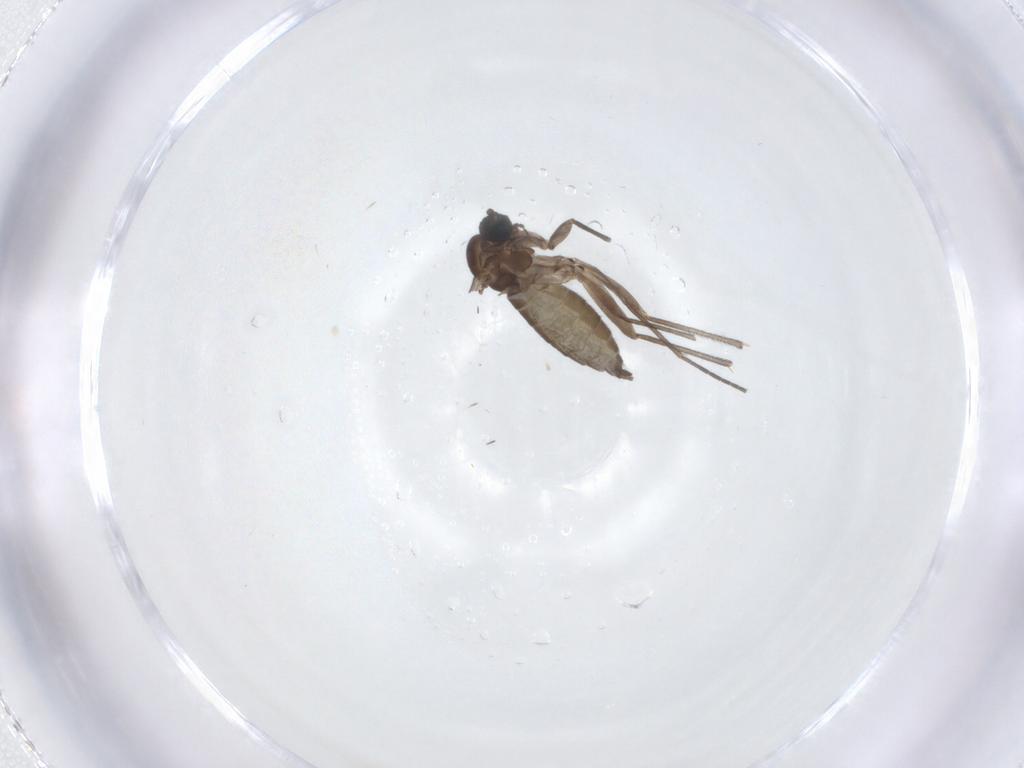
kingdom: Animalia
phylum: Arthropoda
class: Insecta
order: Diptera
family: Sciaridae
